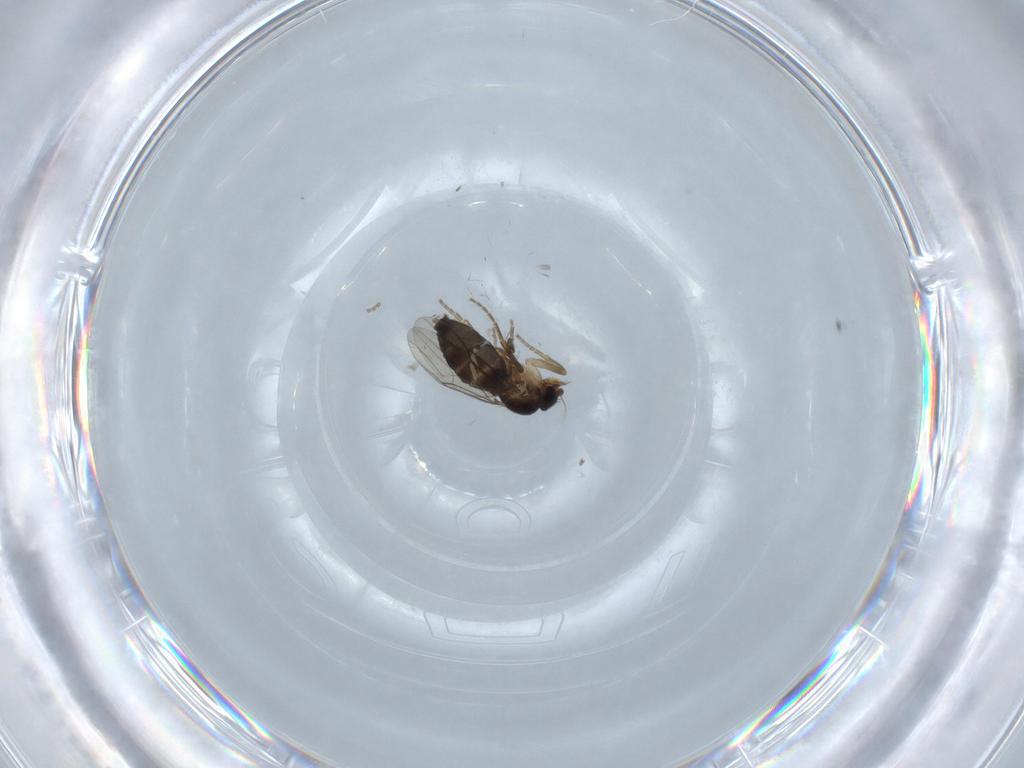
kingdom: Animalia
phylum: Arthropoda
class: Insecta
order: Diptera
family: Phoridae
